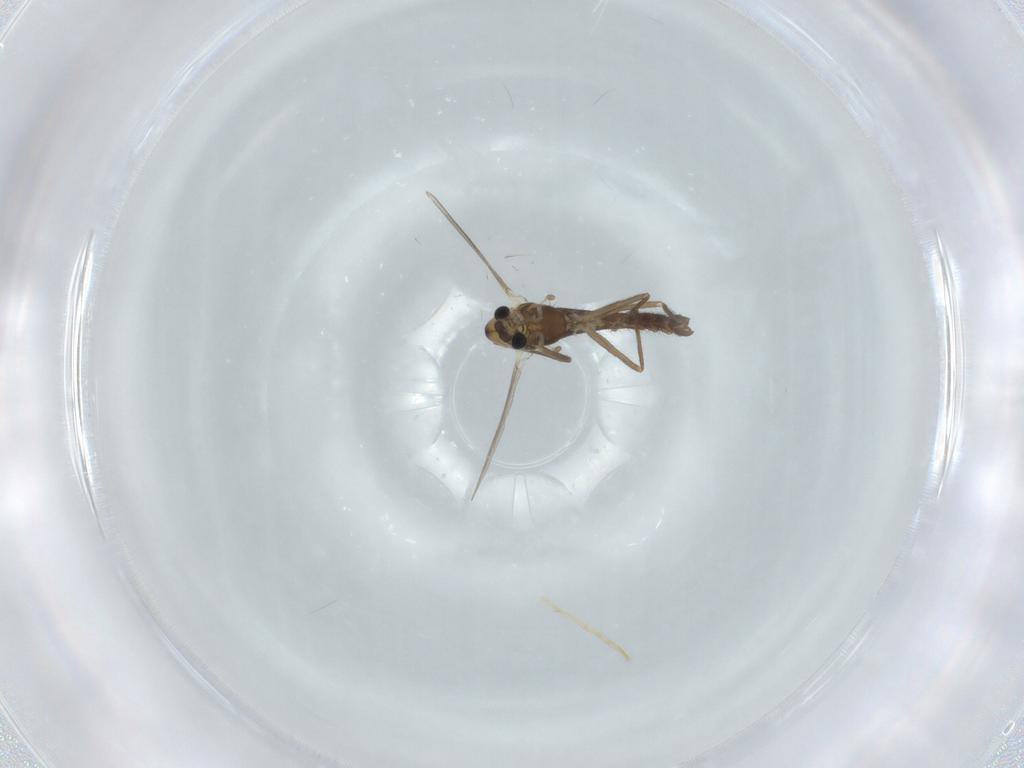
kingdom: Animalia
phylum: Arthropoda
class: Insecta
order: Diptera
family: Chironomidae
